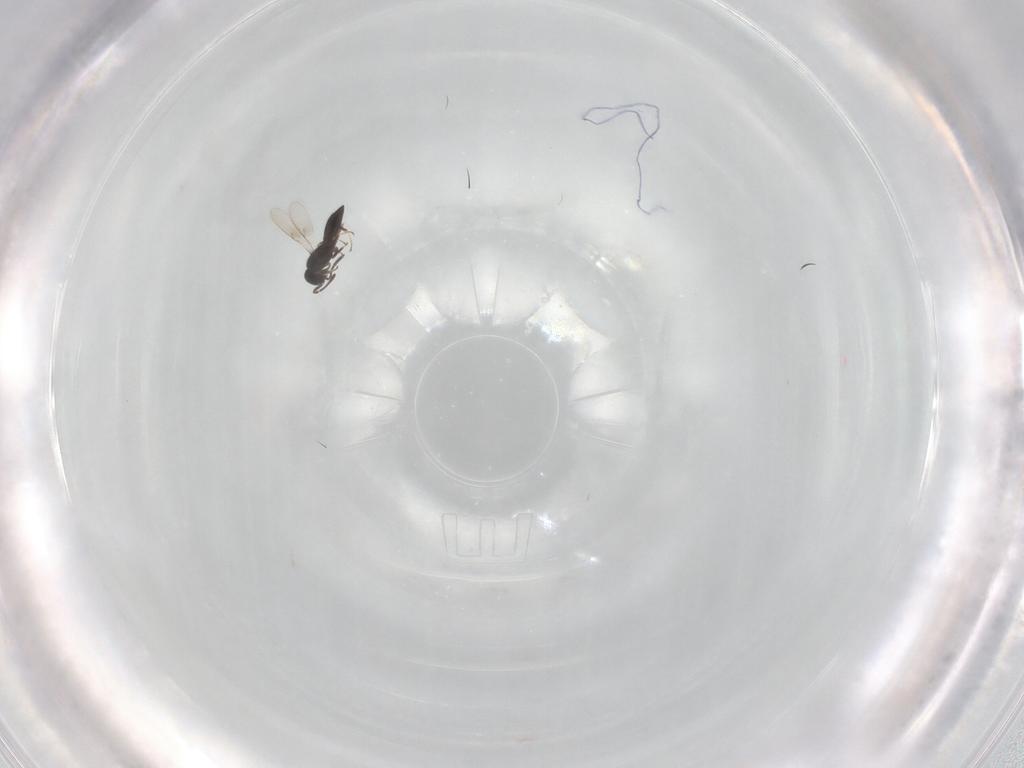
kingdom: Animalia
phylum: Arthropoda
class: Insecta
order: Hymenoptera
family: Scelionidae
